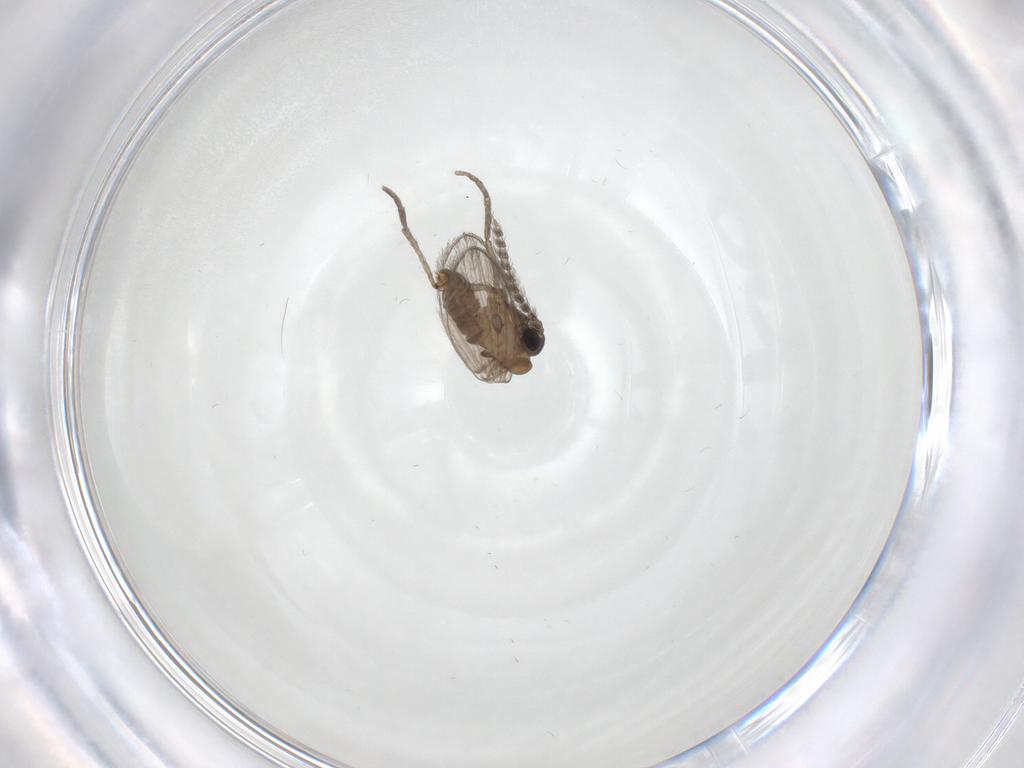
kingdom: Animalia
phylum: Arthropoda
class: Insecta
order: Diptera
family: Psychodidae
